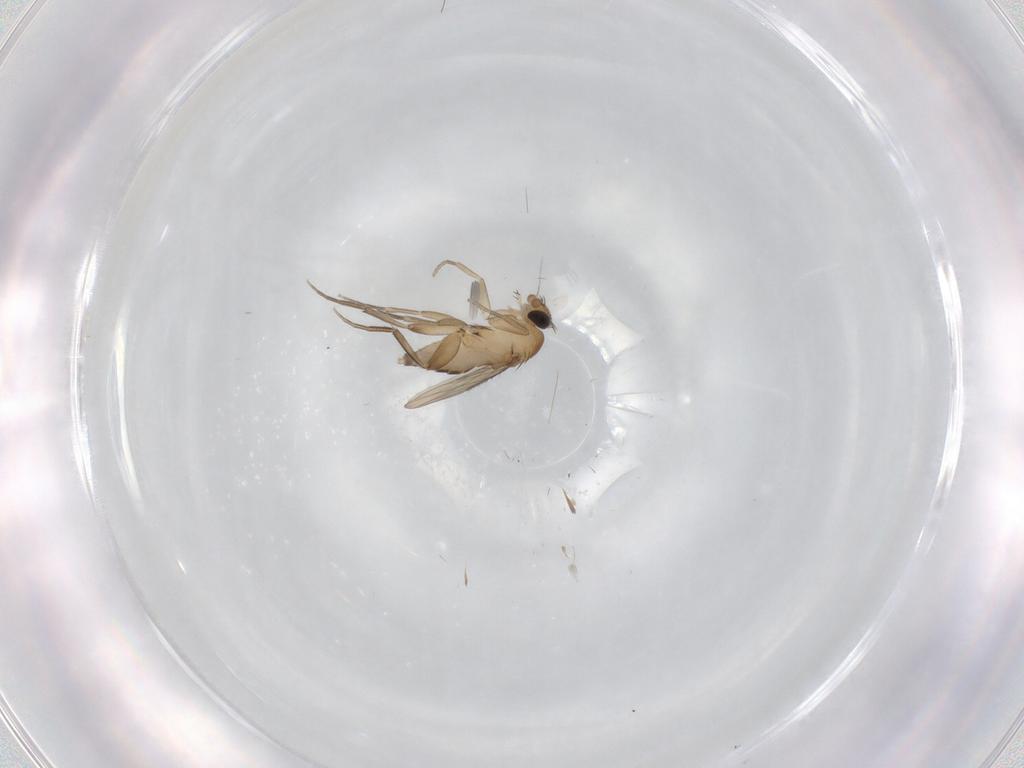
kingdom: Animalia
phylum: Arthropoda
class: Insecta
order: Diptera
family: Phoridae
